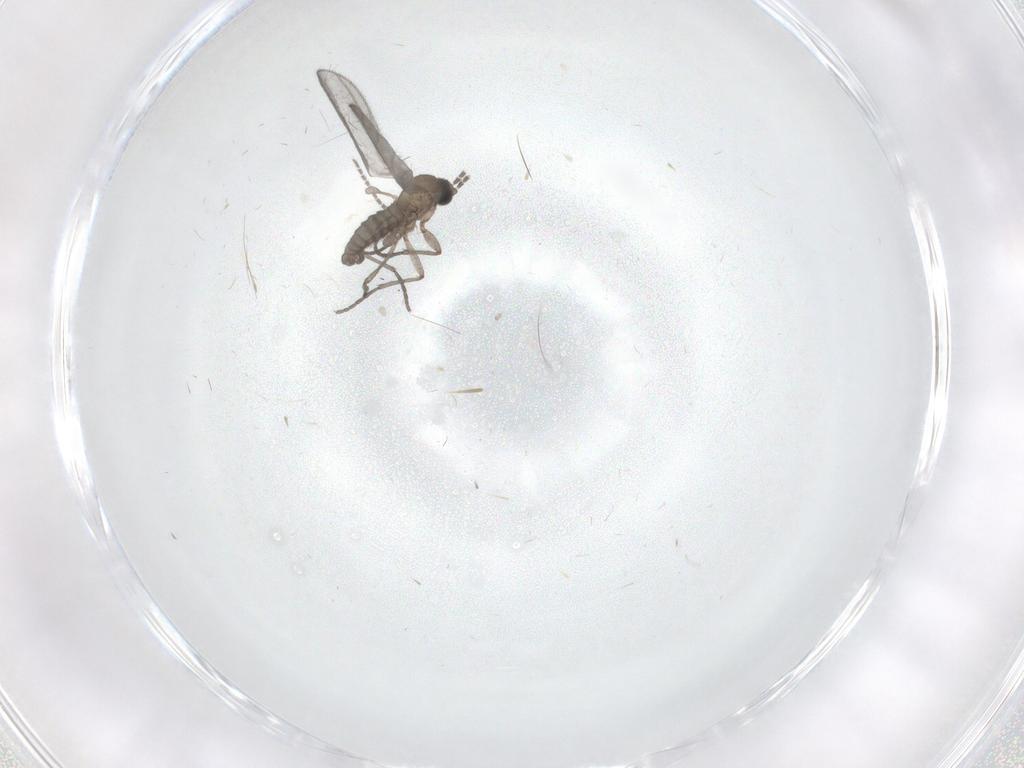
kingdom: Animalia
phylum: Arthropoda
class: Insecta
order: Diptera
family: Sciaridae
